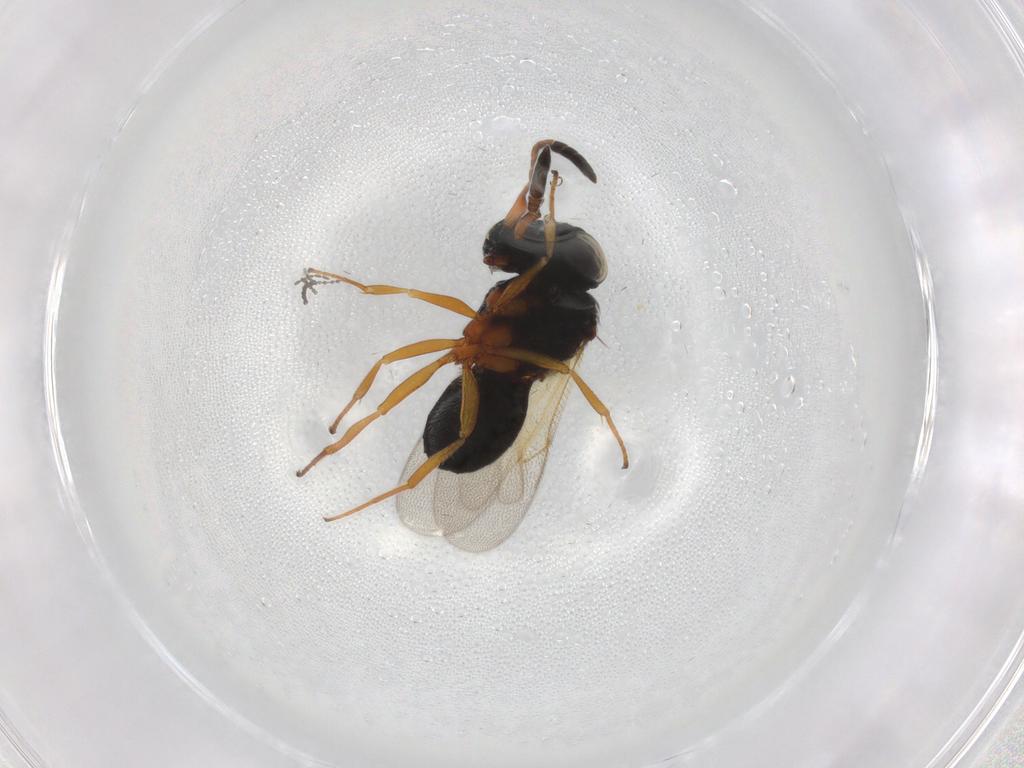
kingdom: Animalia
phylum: Arthropoda
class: Insecta
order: Hymenoptera
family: Scelionidae
